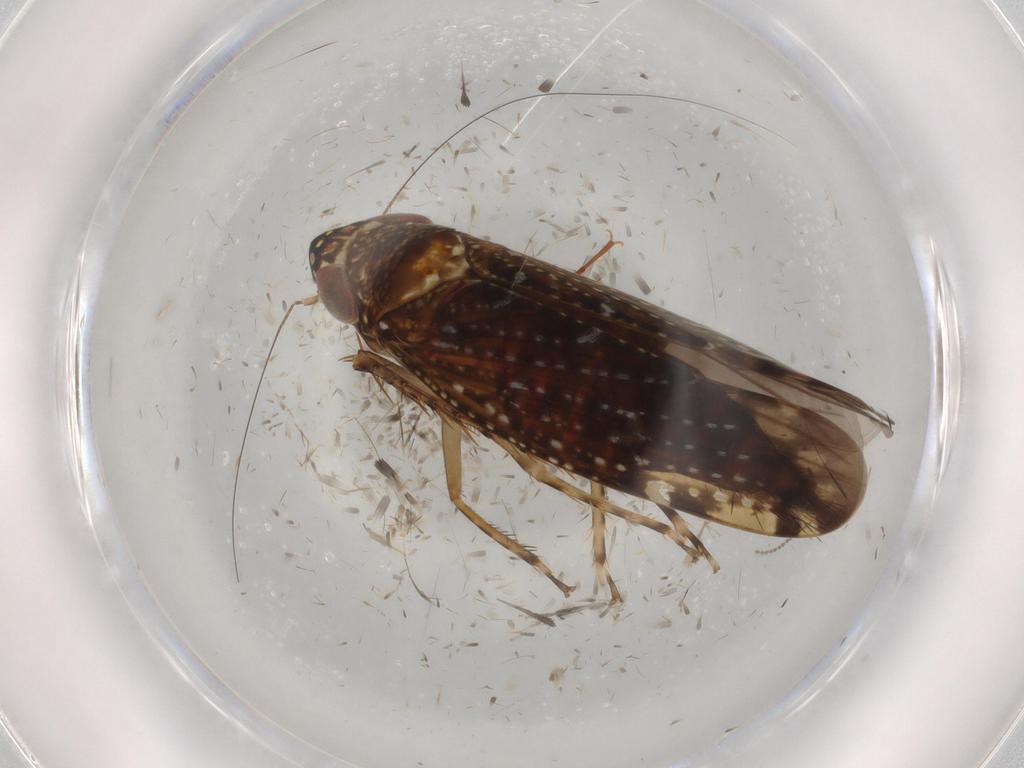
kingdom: Animalia
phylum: Arthropoda
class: Insecta
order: Hemiptera
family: Cicadellidae
